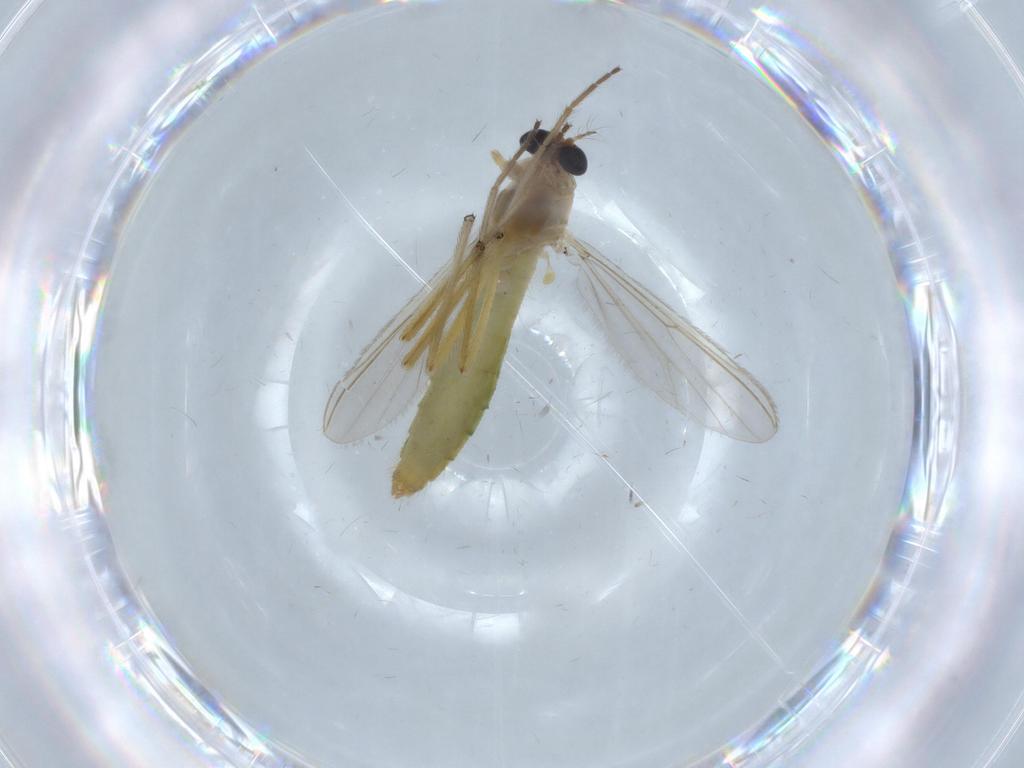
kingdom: Animalia
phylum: Arthropoda
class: Insecta
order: Diptera
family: Chironomidae
